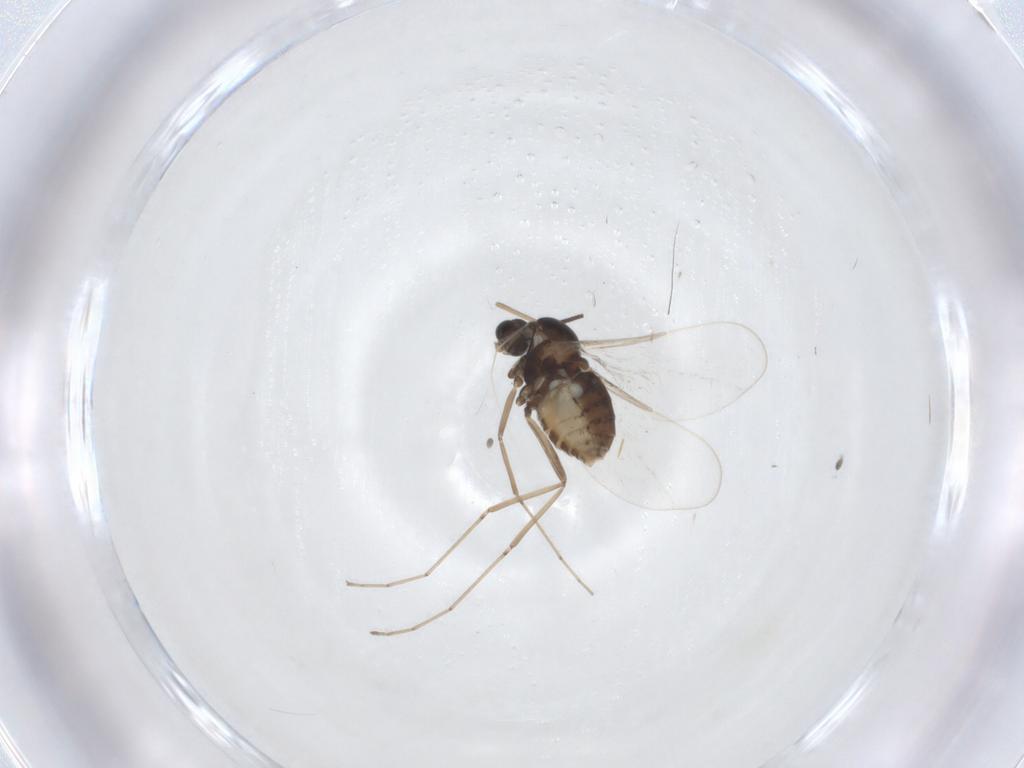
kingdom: Animalia
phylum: Arthropoda
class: Insecta
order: Diptera
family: Cecidomyiidae
